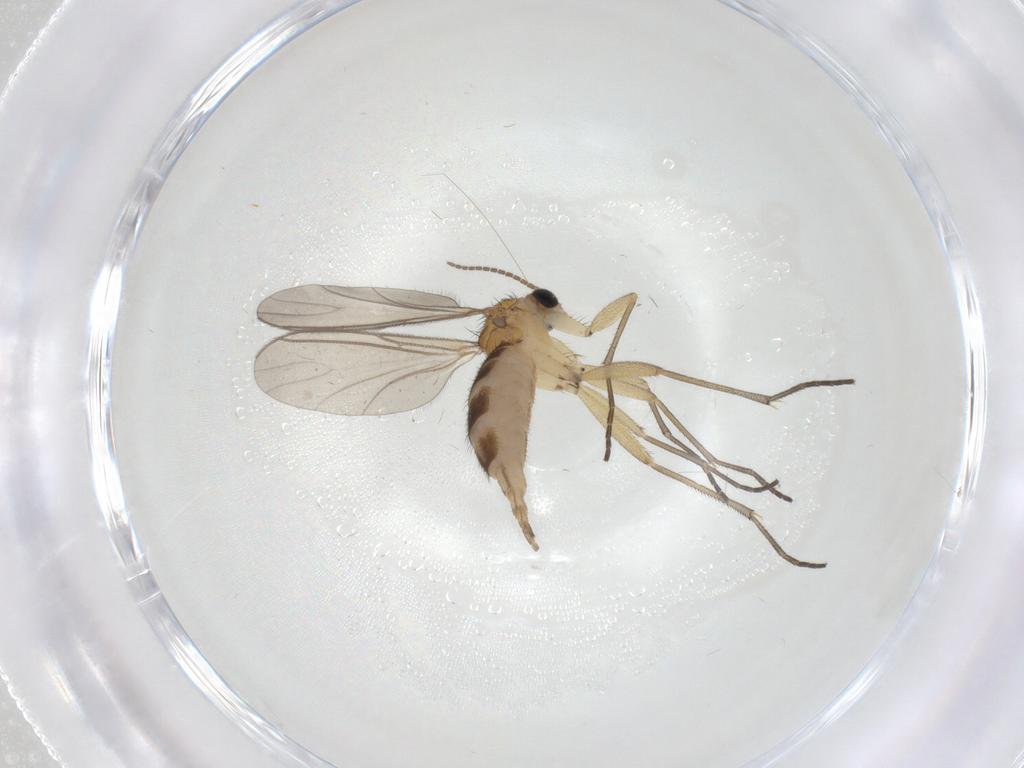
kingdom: Animalia
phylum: Arthropoda
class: Insecta
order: Diptera
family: Sciaridae
